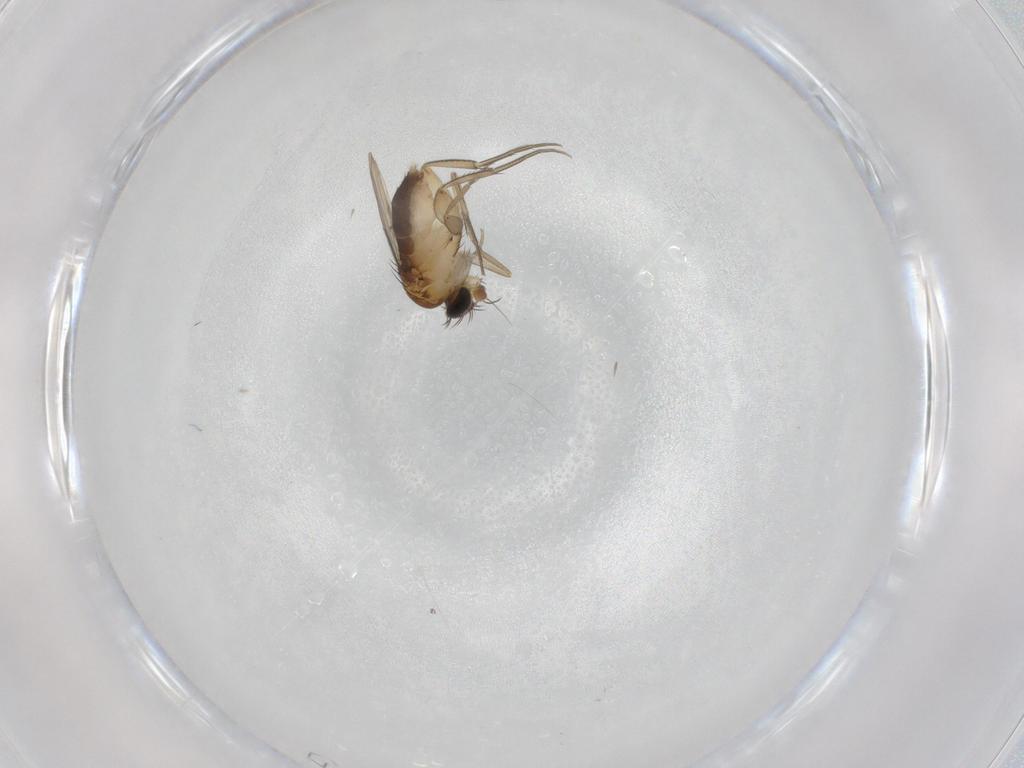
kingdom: Animalia
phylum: Arthropoda
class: Insecta
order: Diptera
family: Phoridae
